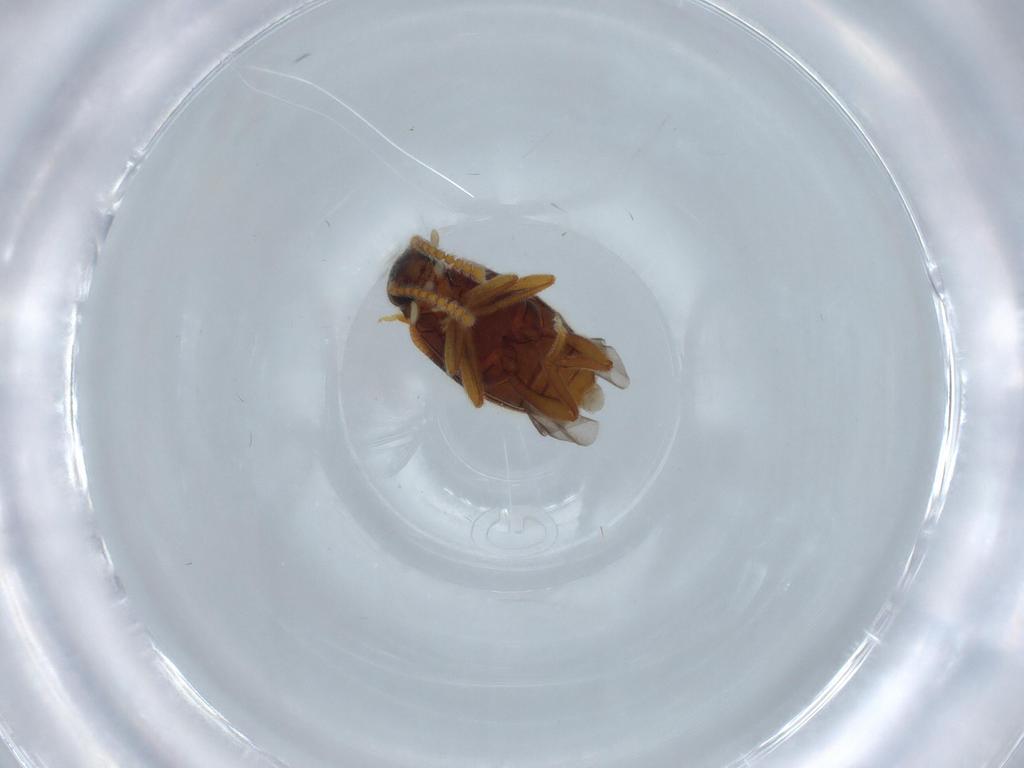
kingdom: Animalia
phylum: Arthropoda
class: Insecta
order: Coleoptera
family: Aderidae
